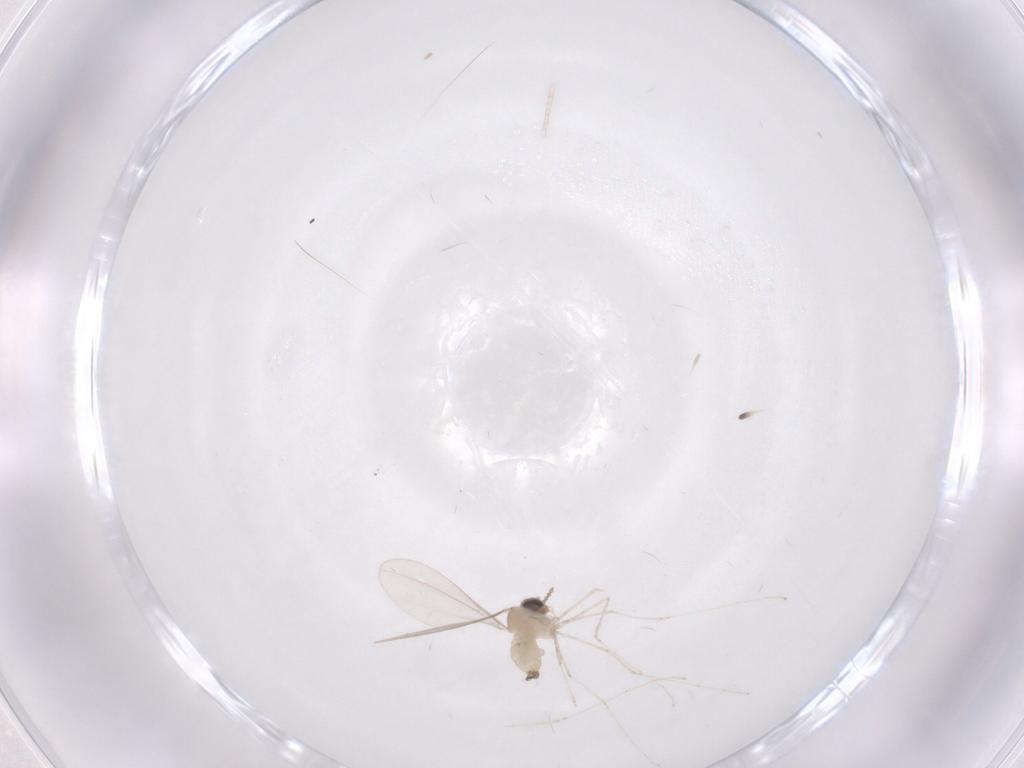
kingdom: Animalia
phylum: Arthropoda
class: Insecta
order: Diptera
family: Cecidomyiidae
